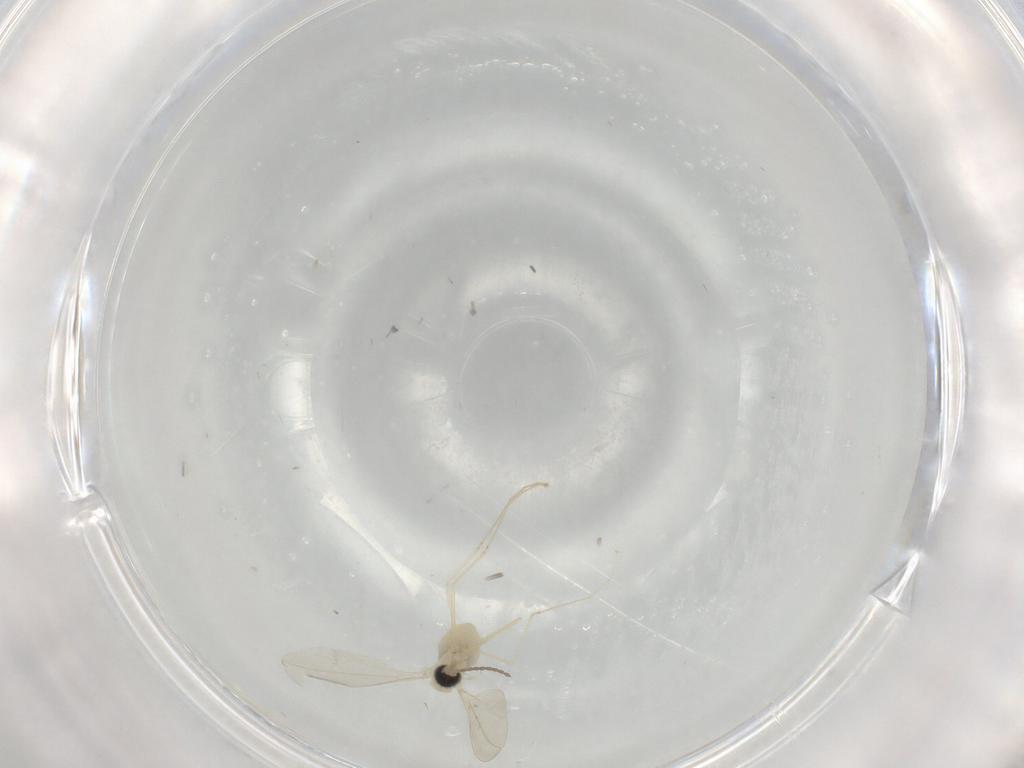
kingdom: Animalia
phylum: Arthropoda
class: Insecta
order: Diptera
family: Cecidomyiidae
